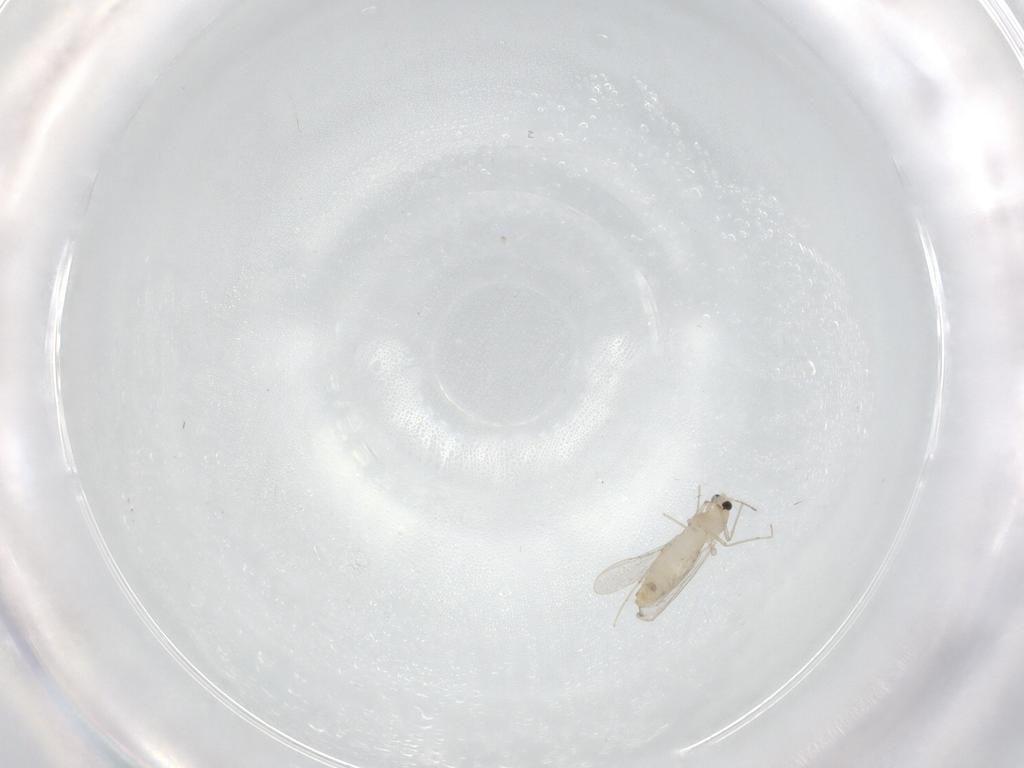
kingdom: Animalia
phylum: Arthropoda
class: Insecta
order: Diptera
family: Chironomidae
